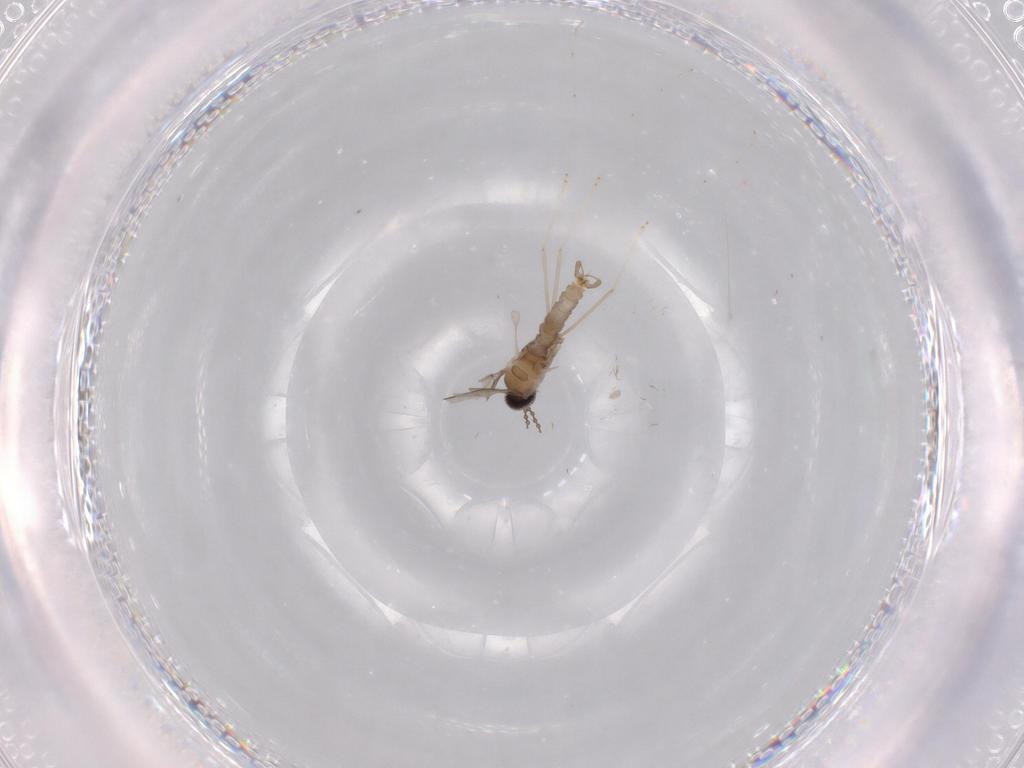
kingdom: Animalia
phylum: Arthropoda
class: Insecta
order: Diptera
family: Cecidomyiidae
